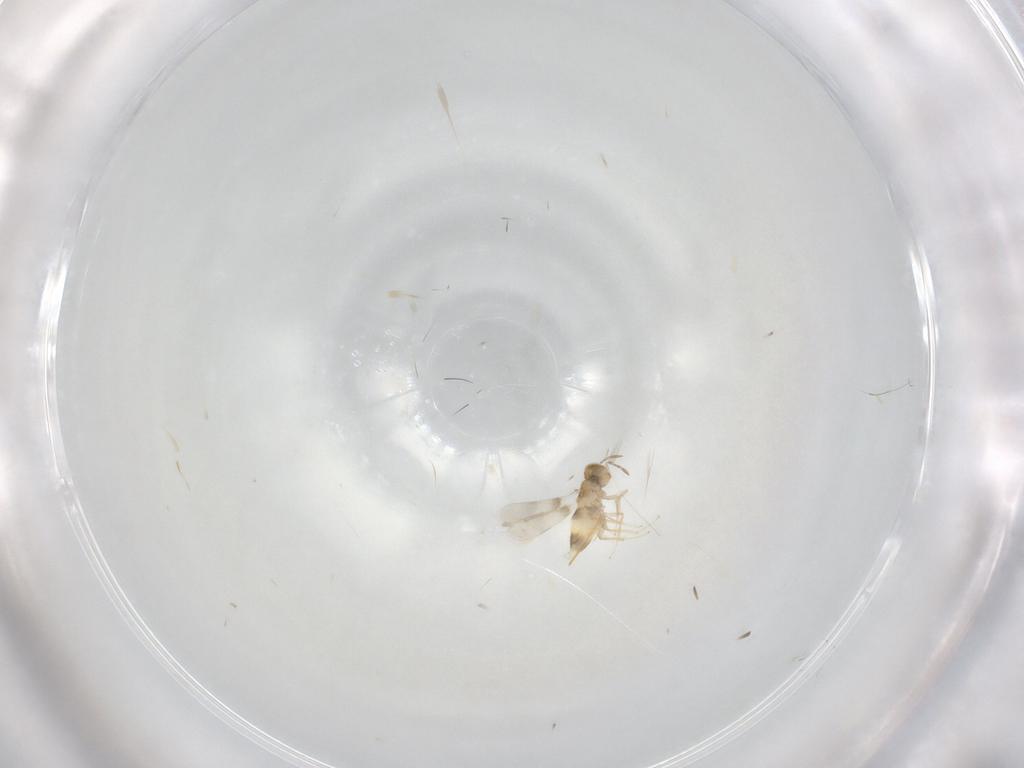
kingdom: Animalia
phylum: Arthropoda
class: Insecta
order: Hymenoptera
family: Aphelinidae
